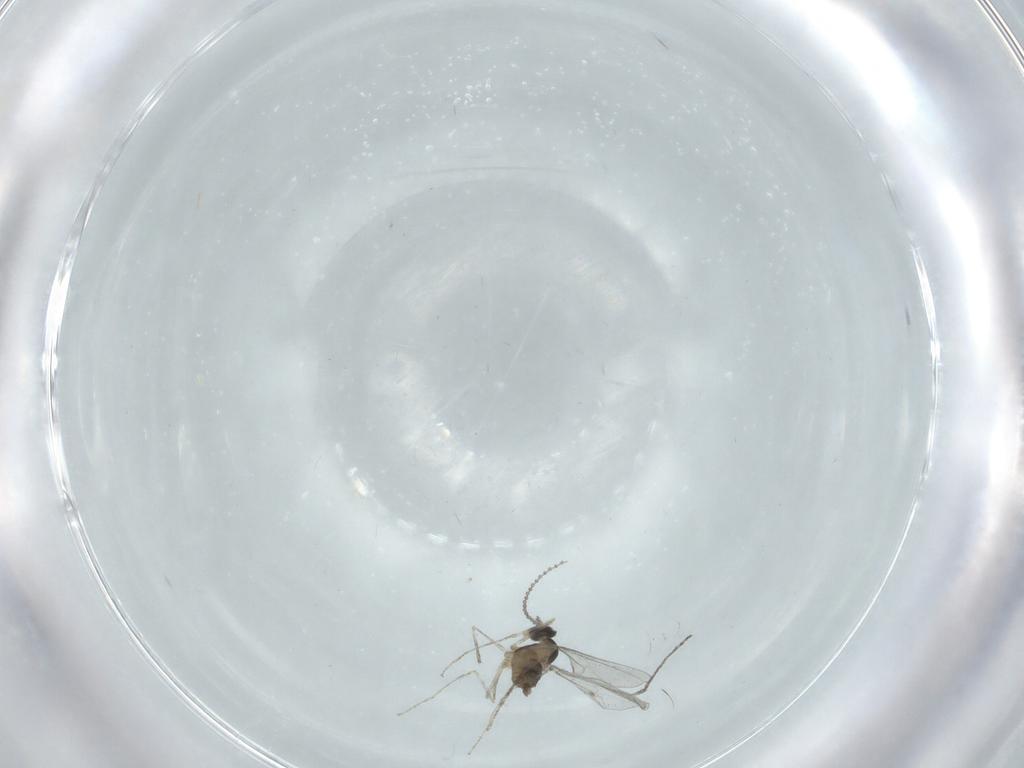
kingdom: Animalia
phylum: Arthropoda
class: Insecta
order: Diptera
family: Cecidomyiidae
